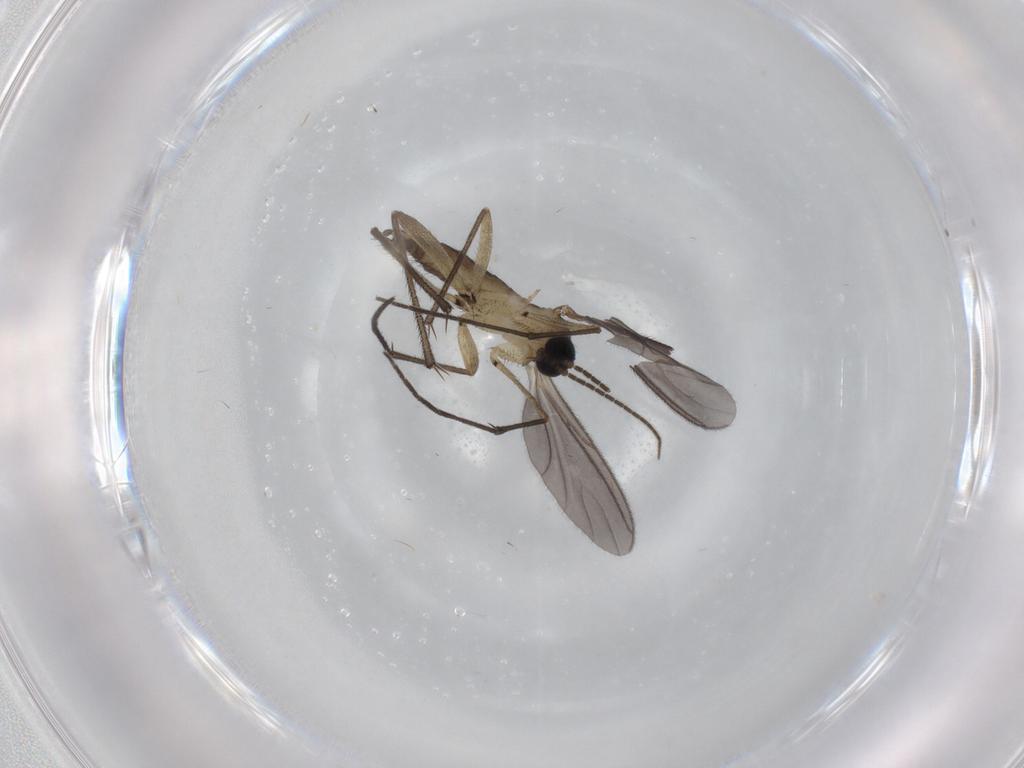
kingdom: Animalia
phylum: Arthropoda
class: Insecta
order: Diptera
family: Sciaridae
